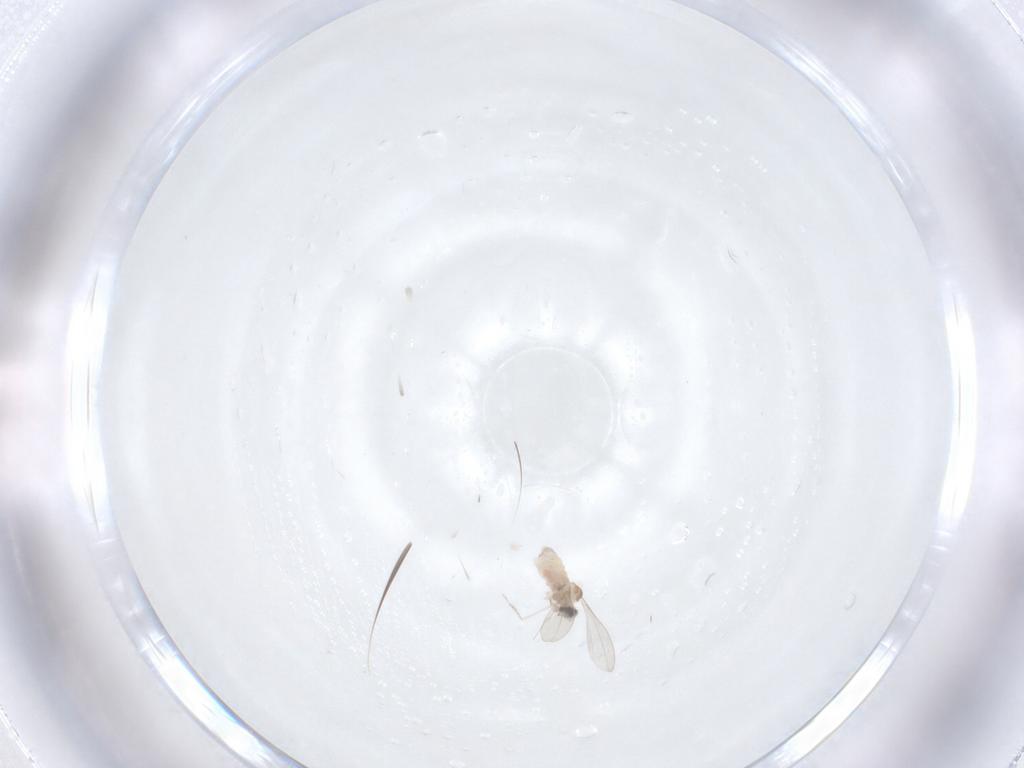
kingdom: Animalia
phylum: Arthropoda
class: Insecta
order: Diptera
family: Cecidomyiidae
